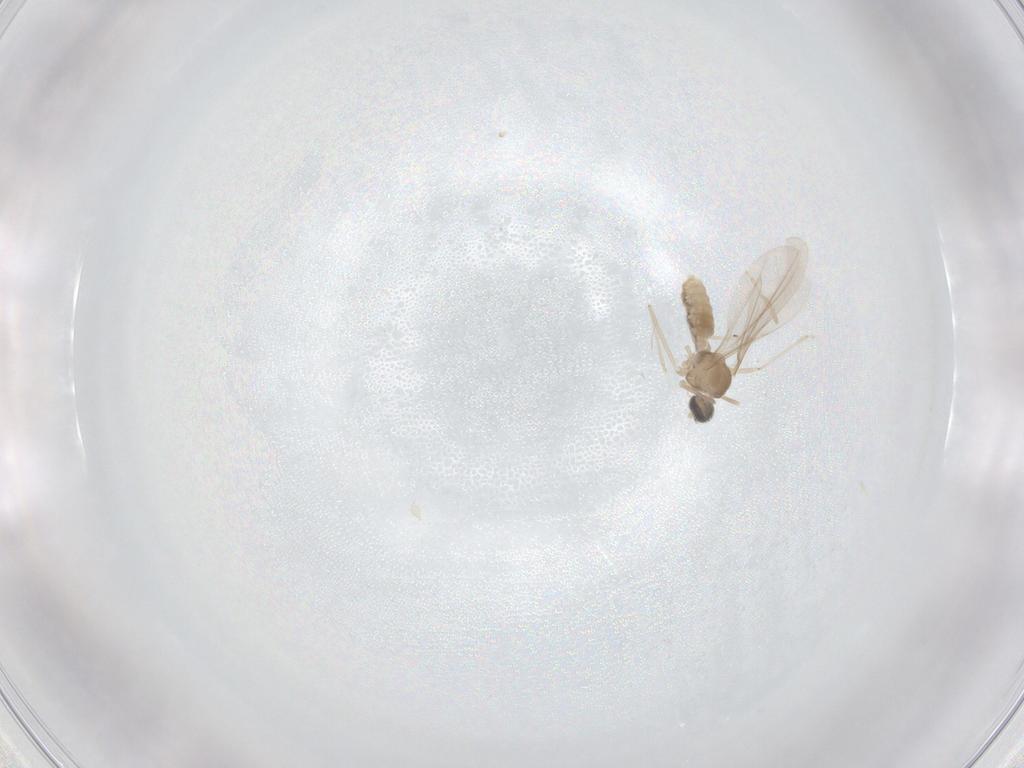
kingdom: Animalia
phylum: Arthropoda
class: Insecta
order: Diptera
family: Cecidomyiidae
